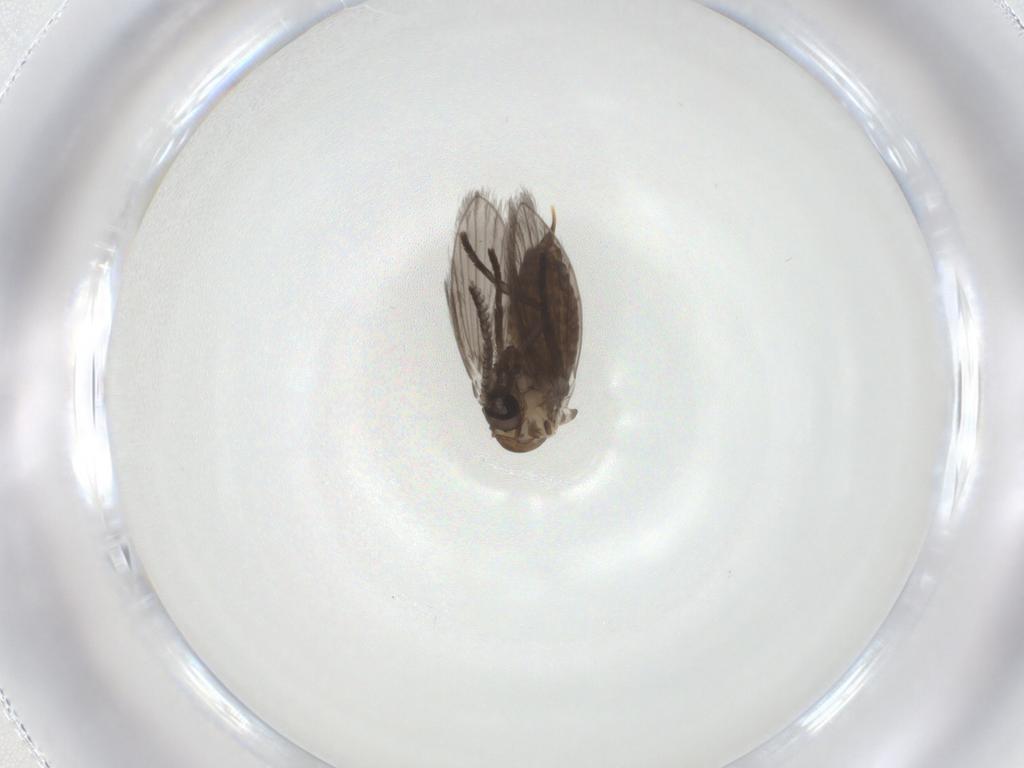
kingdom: Animalia
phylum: Arthropoda
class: Insecta
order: Diptera
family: Psychodidae
